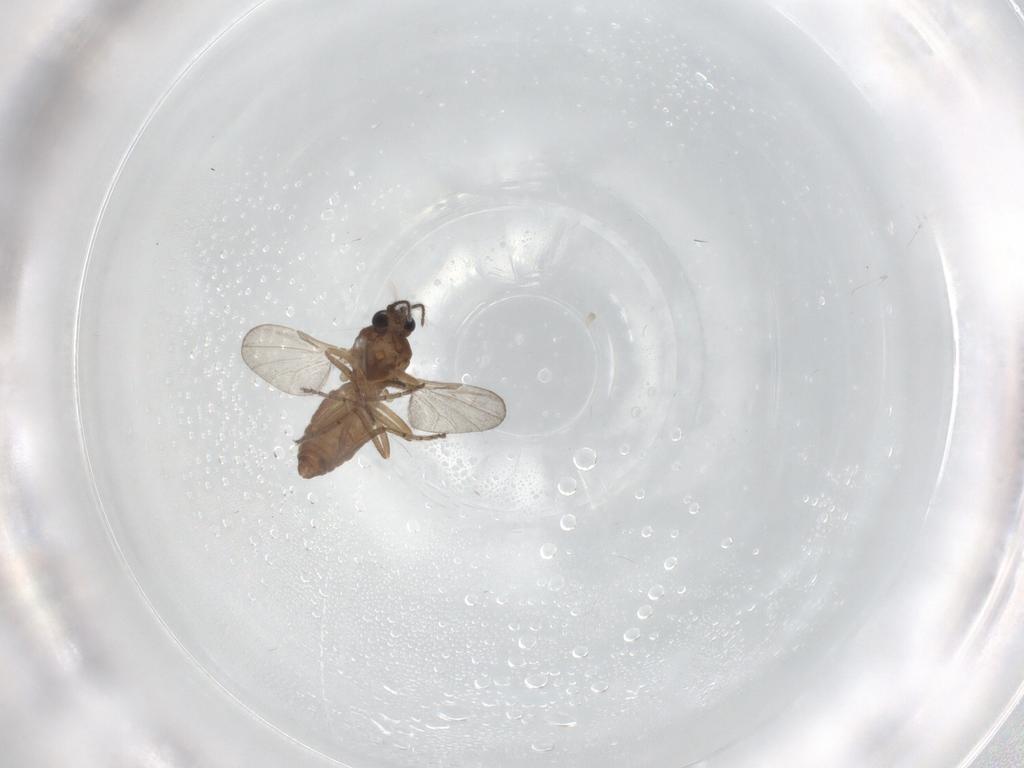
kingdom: Animalia
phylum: Arthropoda
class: Insecta
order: Diptera
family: Ceratopogonidae
